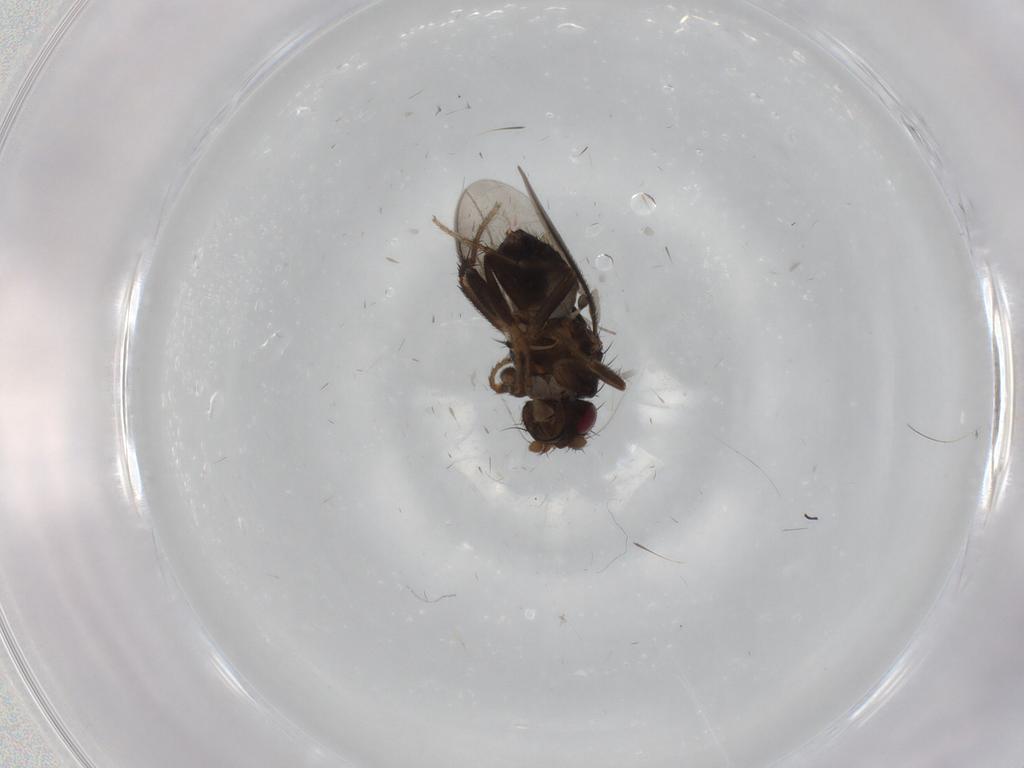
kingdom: Animalia
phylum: Arthropoda
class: Insecta
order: Diptera
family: Sphaeroceridae
